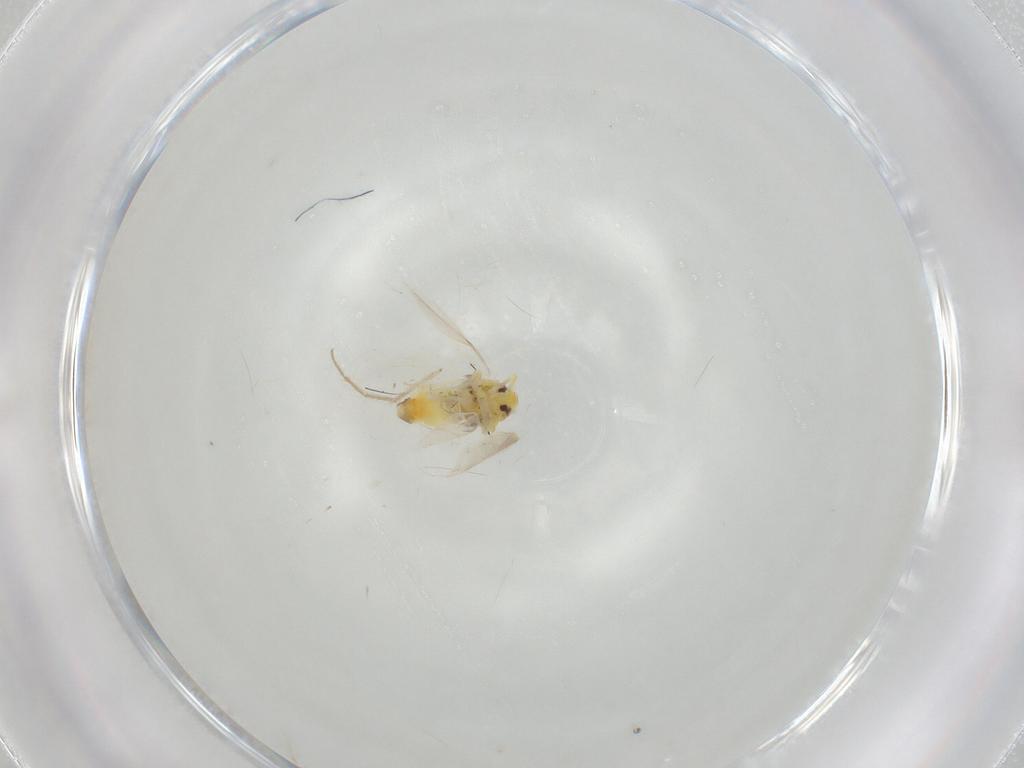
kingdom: Animalia
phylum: Arthropoda
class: Insecta
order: Hemiptera
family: Aleyrodidae
